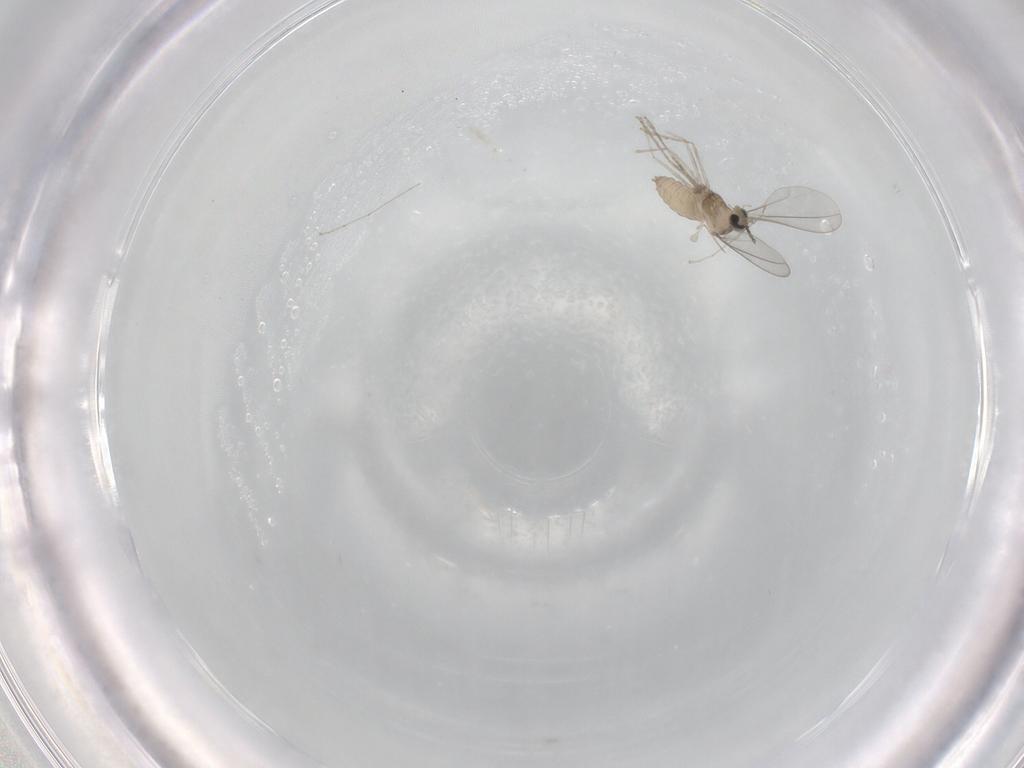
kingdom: Animalia
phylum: Arthropoda
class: Insecta
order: Diptera
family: Cecidomyiidae
